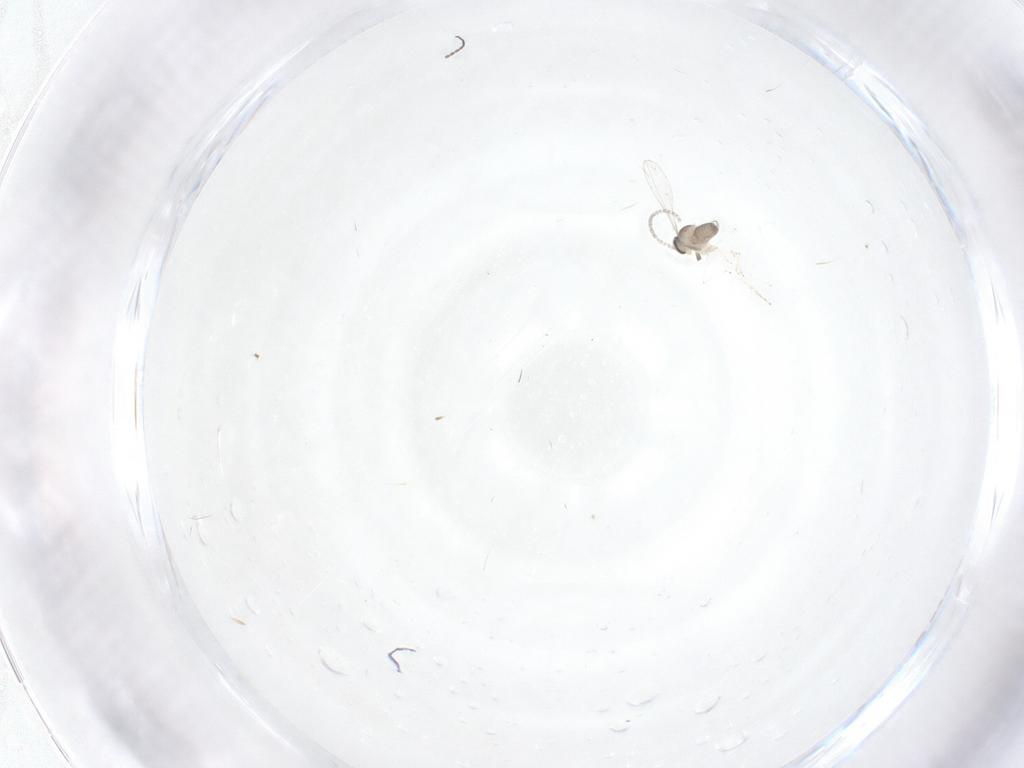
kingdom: Animalia
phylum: Arthropoda
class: Insecta
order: Diptera
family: Cecidomyiidae
